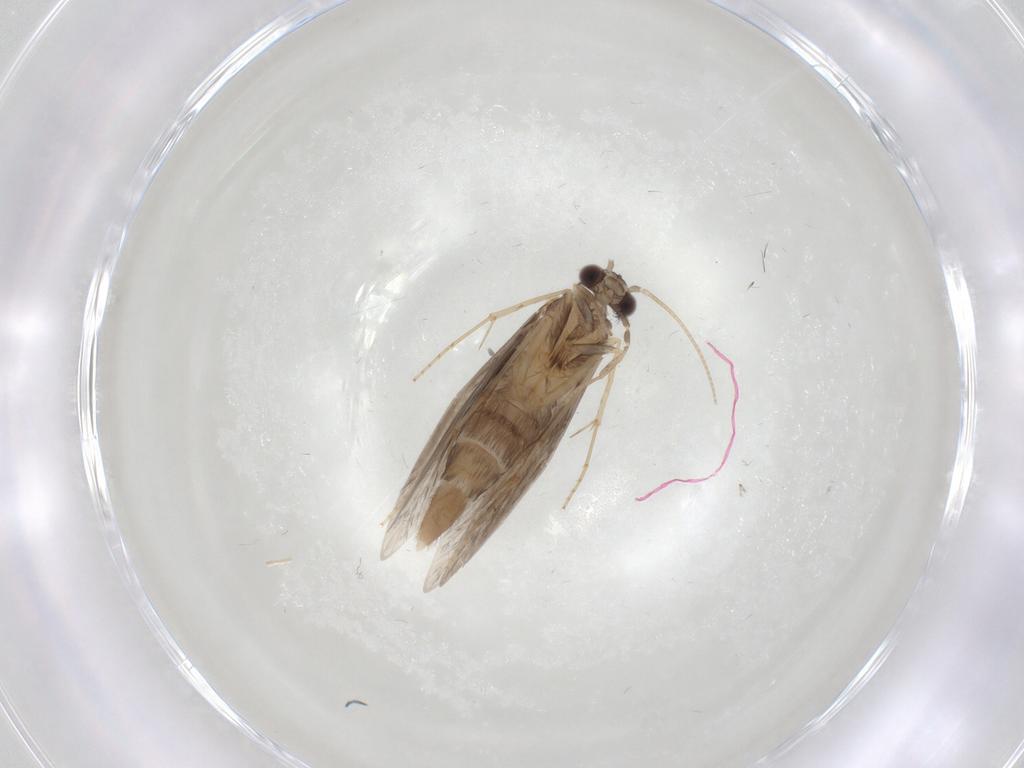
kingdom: Animalia
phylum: Arthropoda
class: Insecta
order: Trichoptera
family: Hydroptilidae
